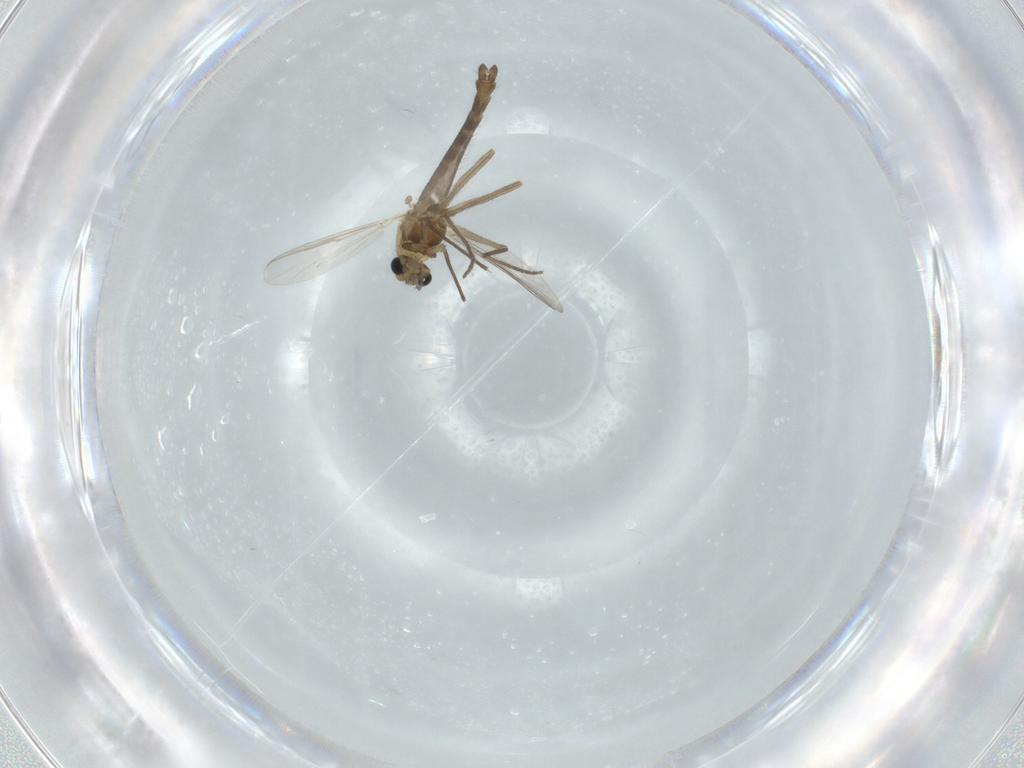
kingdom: Animalia
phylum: Arthropoda
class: Insecta
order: Diptera
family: Chironomidae
